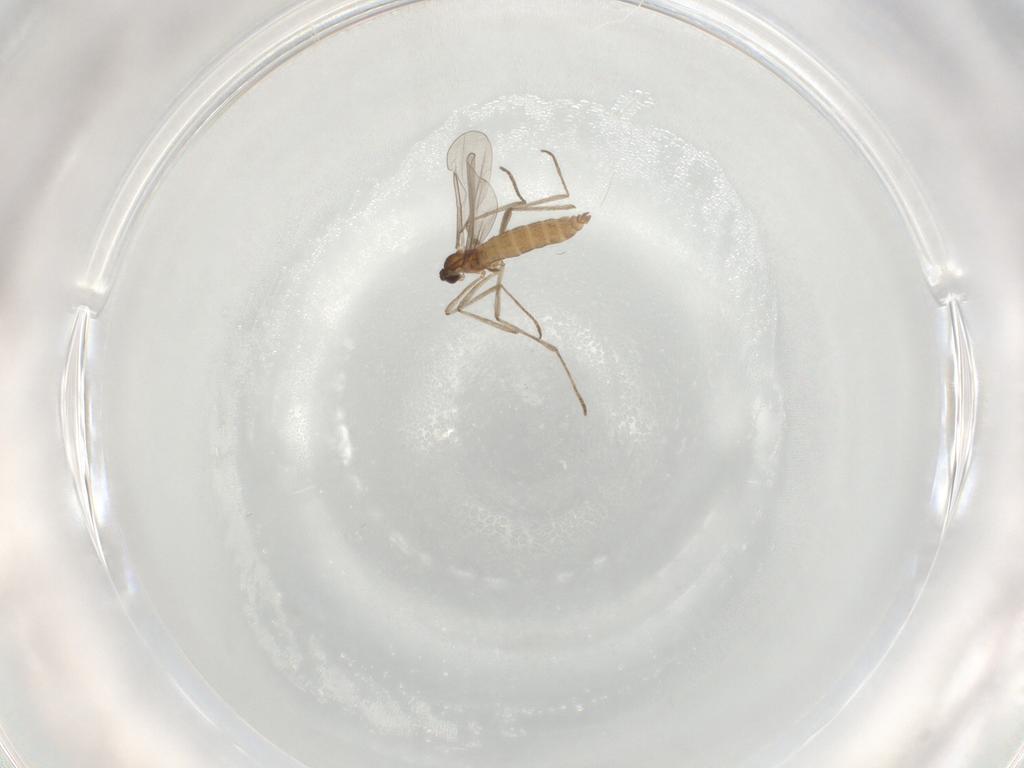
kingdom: Animalia
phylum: Arthropoda
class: Insecta
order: Diptera
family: Cecidomyiidae
